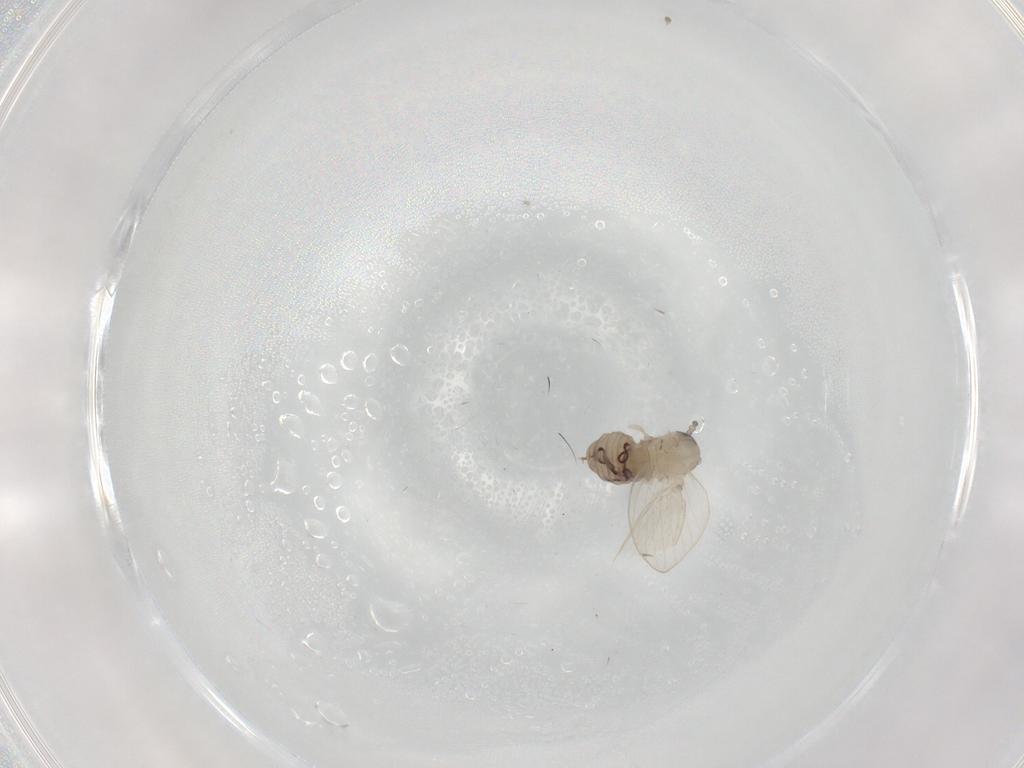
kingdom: Animalia
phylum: Arthropoda
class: Insecta
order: Diptera
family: Psychodidae
